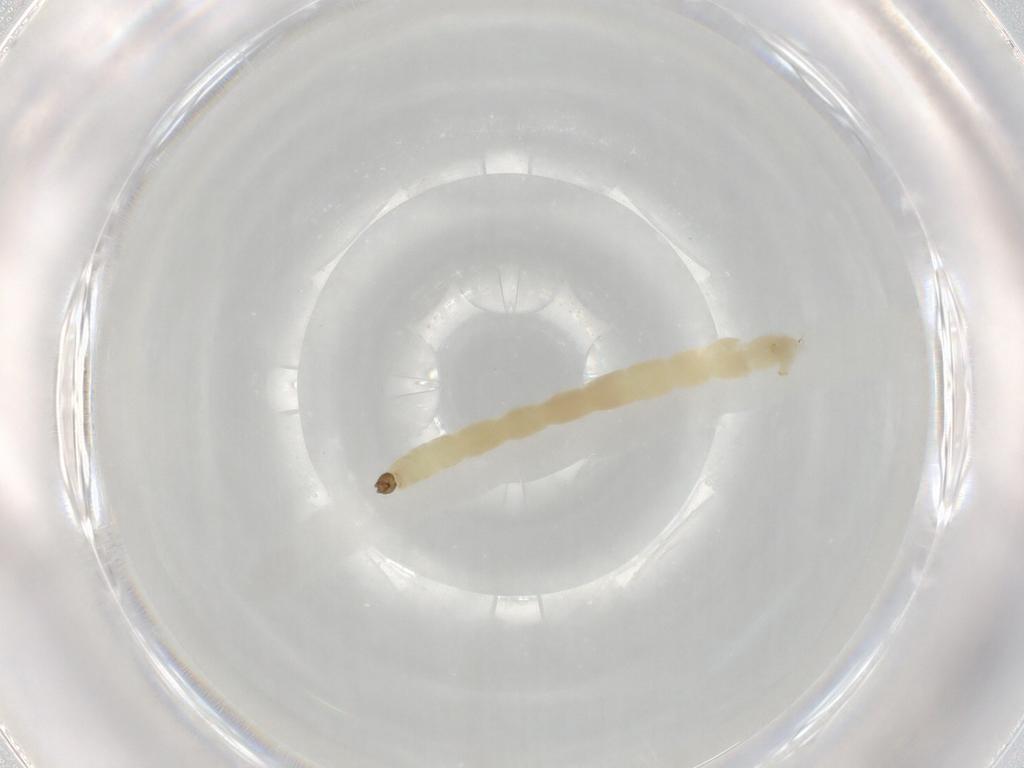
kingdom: Animalia
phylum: Arthropoda
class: Insecta
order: Diptera
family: Chironomidae
